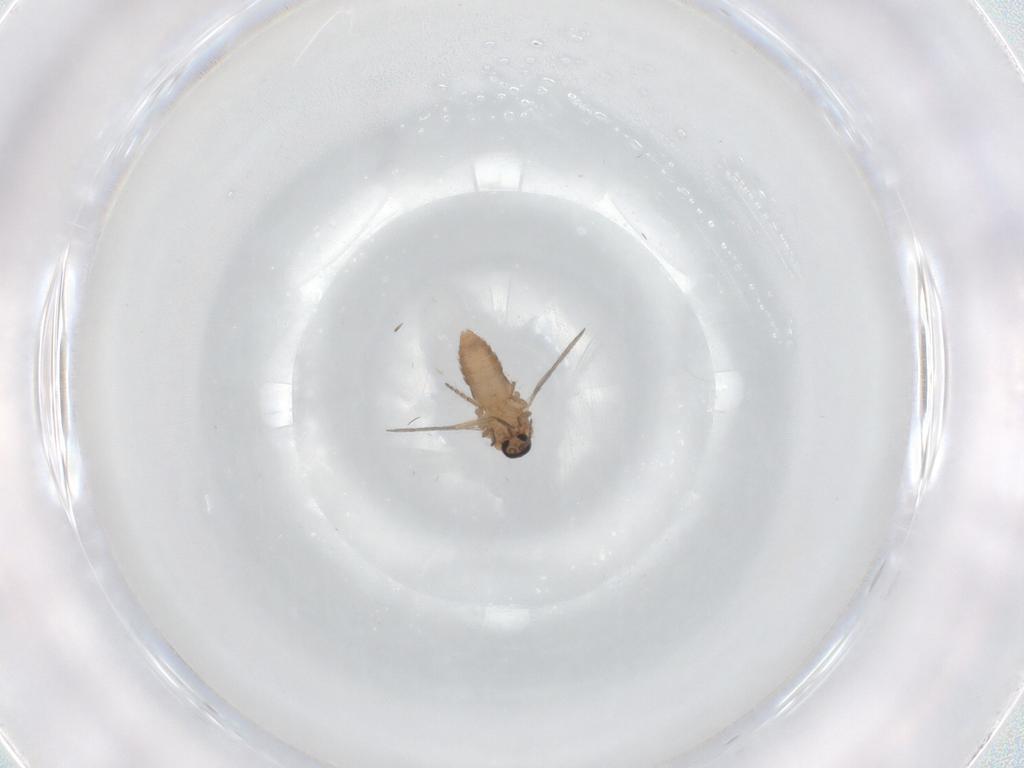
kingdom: Animalia
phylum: Arthropoda
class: Insecta
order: Diptera
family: Ceratopogonidae
